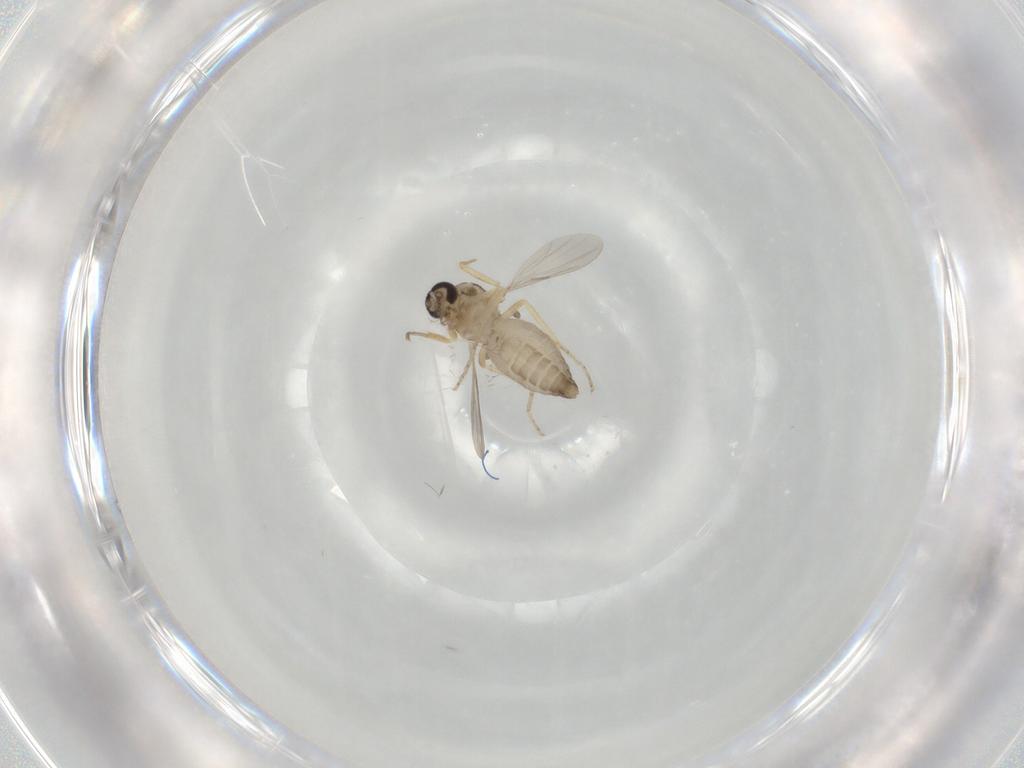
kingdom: Animalia
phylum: Arthropoda
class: Insecta
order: Diptera
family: Ceratopogonidae
